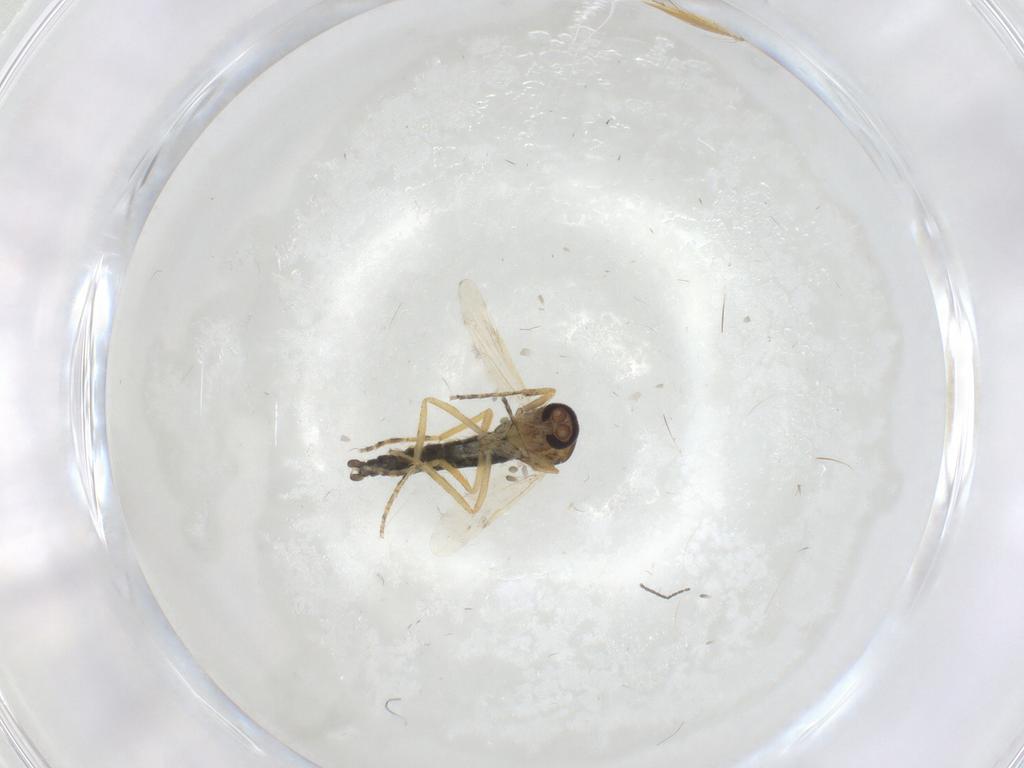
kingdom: Animalia
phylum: Arthropoda
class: Insecta
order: Diptera
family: Ceratopogonidae
